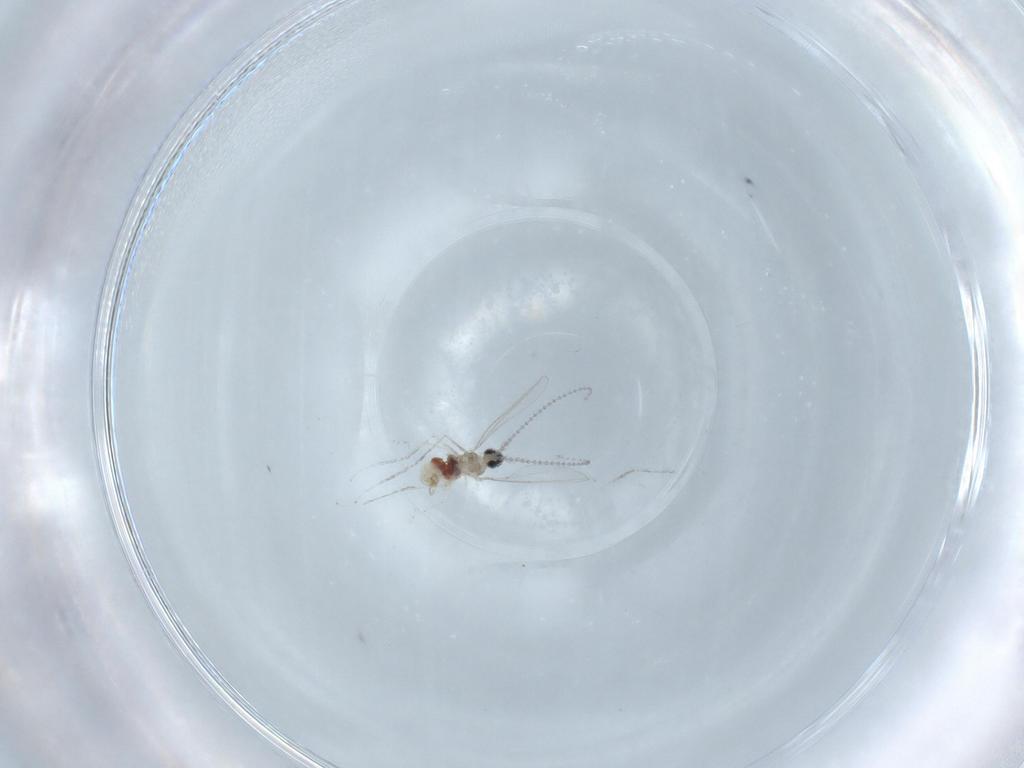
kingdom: Animalia
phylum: Arthropoda
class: Insecta
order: Diptera
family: Cecidomyiidae
